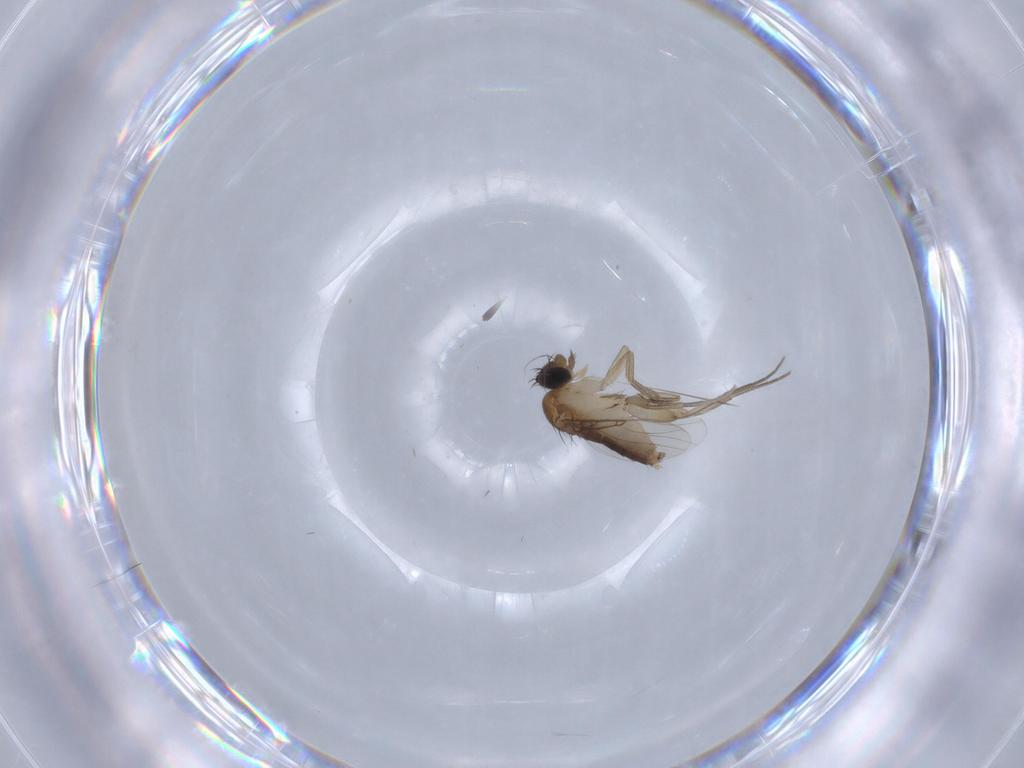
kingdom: Animalia
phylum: Arthropoda
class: Insecta
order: Diptera
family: Phoridae
